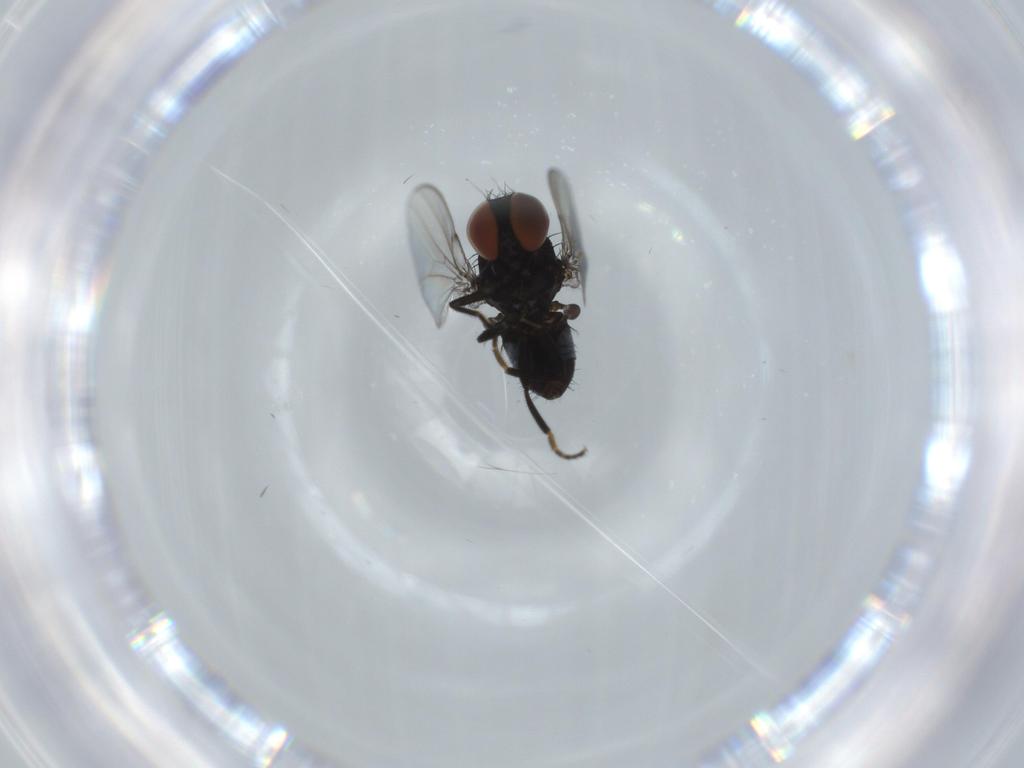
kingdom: Animalia
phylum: Arthropoda
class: Insecta
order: Diptera
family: Milichiidae
